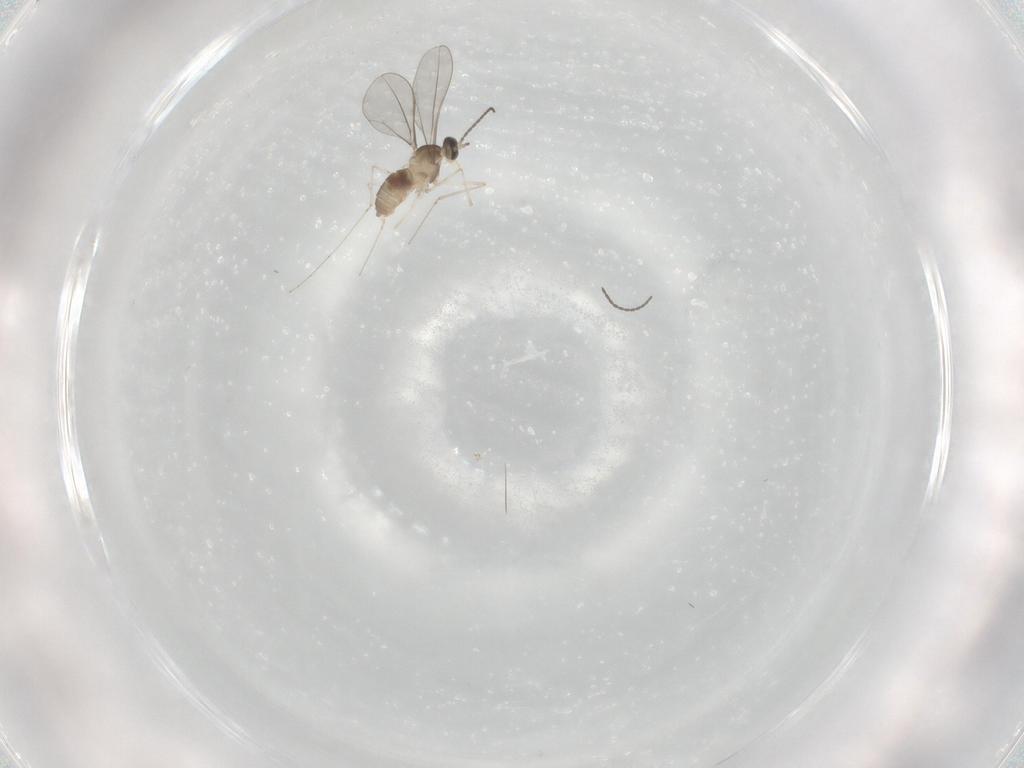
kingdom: Animalia
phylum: Arthropoda
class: Insecta
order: Diptera
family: Cecidomyiidae
